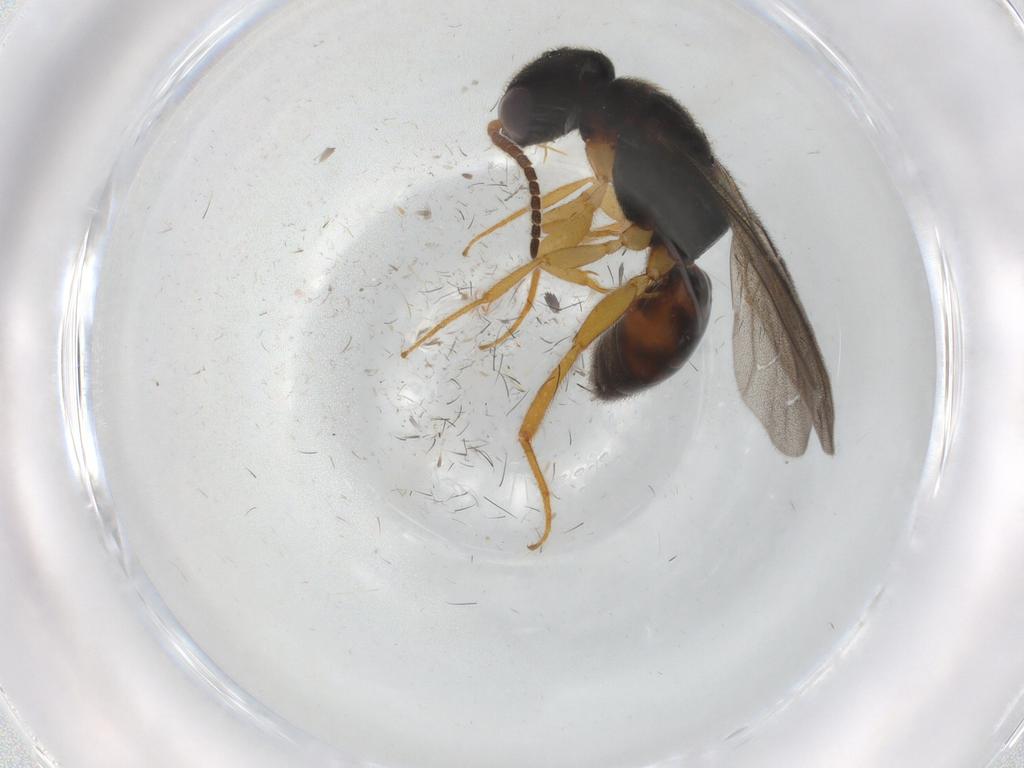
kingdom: Animalia
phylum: Arthropoda
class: Insecta
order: Hymenoptera
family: Bethylidae
